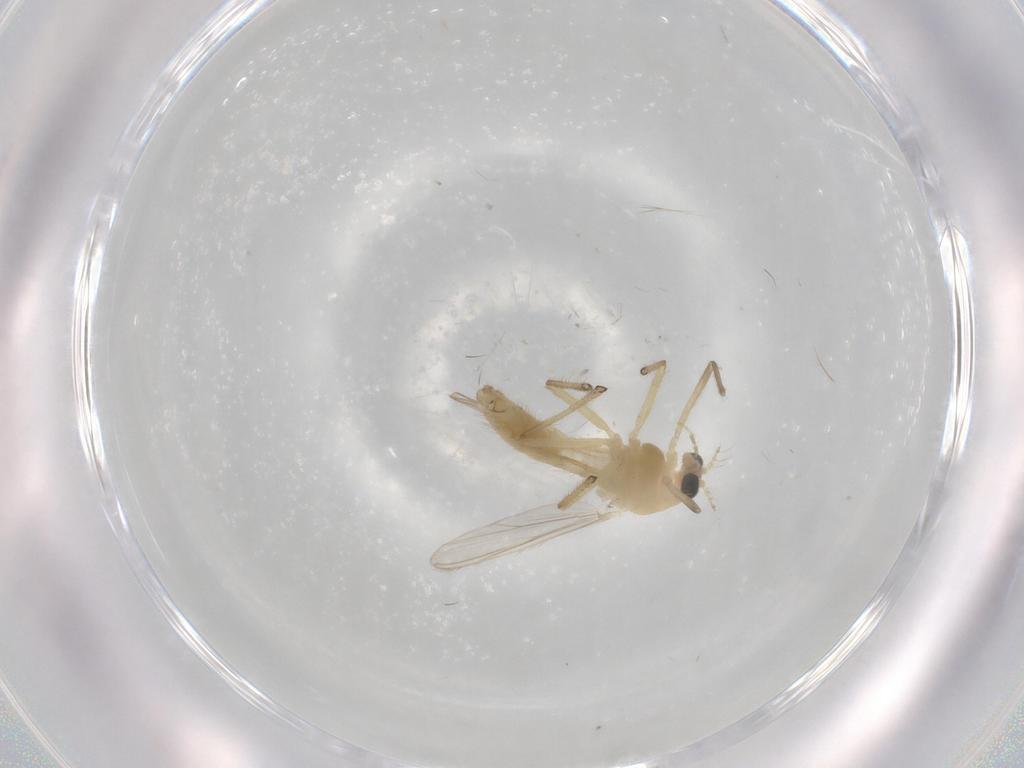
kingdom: Animalia
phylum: Arthropoda
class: Insecta
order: Diptera
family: Chironomidae
